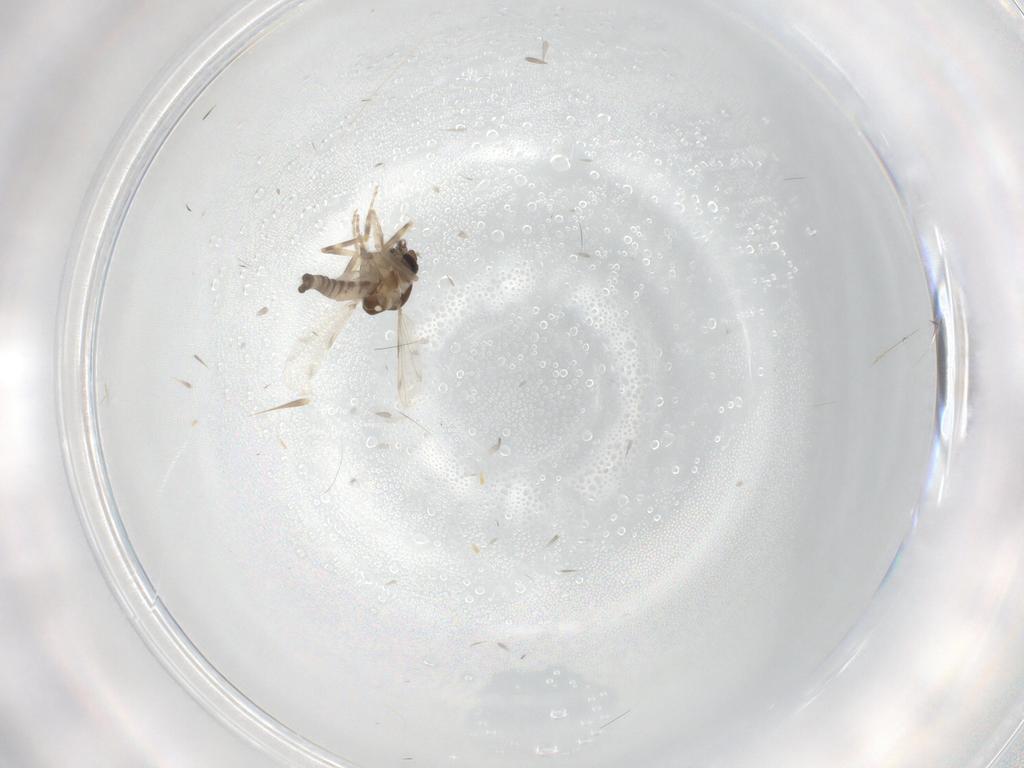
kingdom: Animalia
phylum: Arthropoda
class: Insecta
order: Diptera
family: Ceratopogonidae
